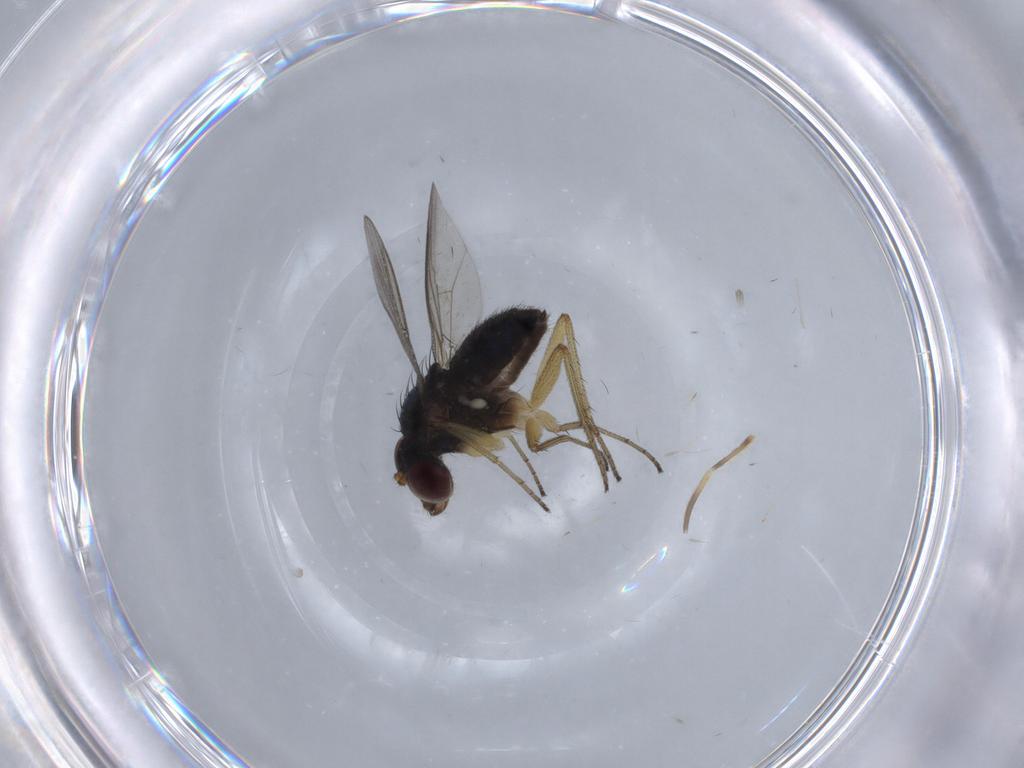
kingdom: Animalia
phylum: Arthropoda
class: Insecta
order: Diptera
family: Dolichopodidae
